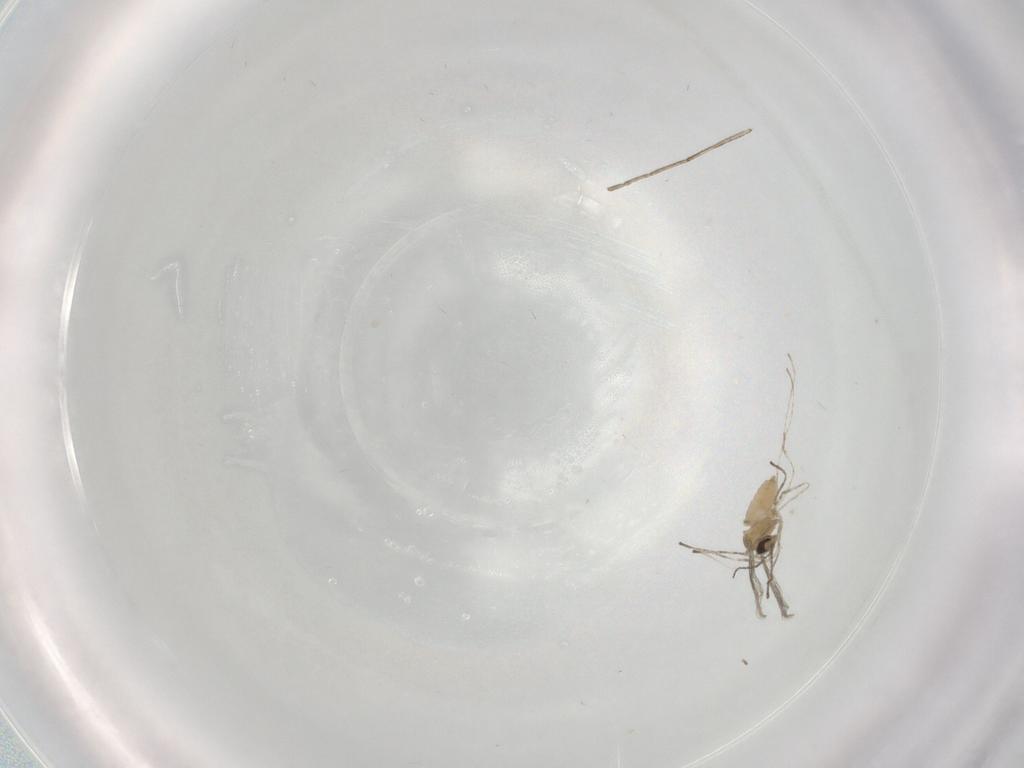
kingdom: Animalia
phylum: Arthropoda
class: Insecta
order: Diptera
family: Cecidomyiidae
